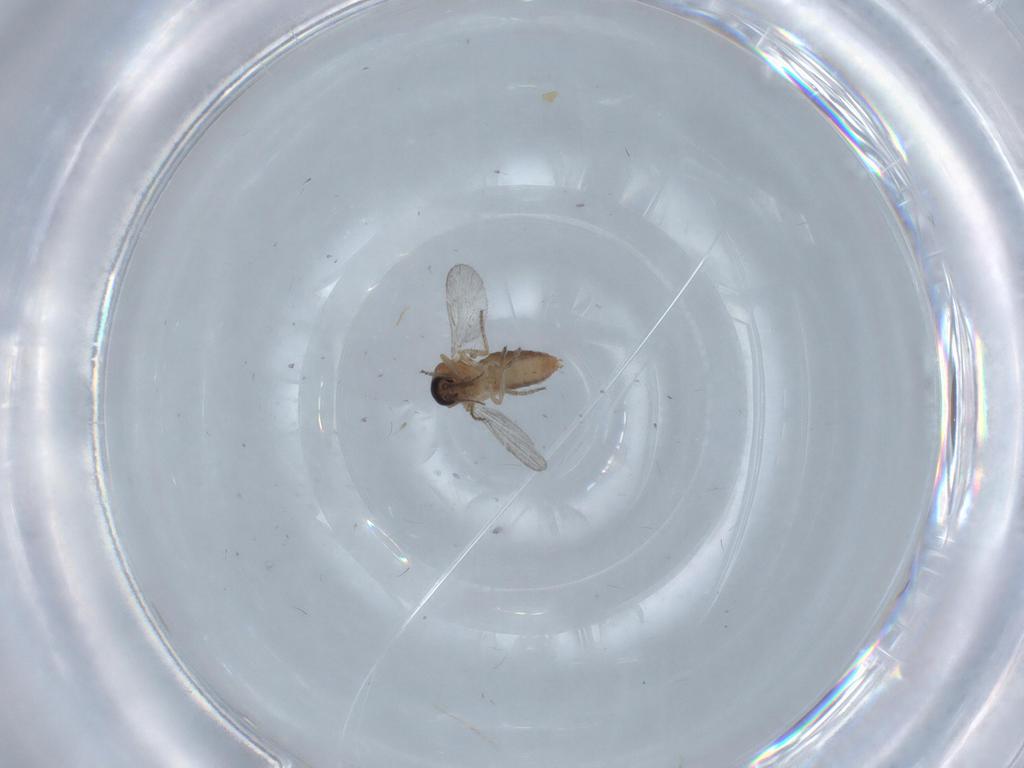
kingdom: Animalia
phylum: Arthropoda
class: Insecta
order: Diptera
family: Ceratopogonidae
